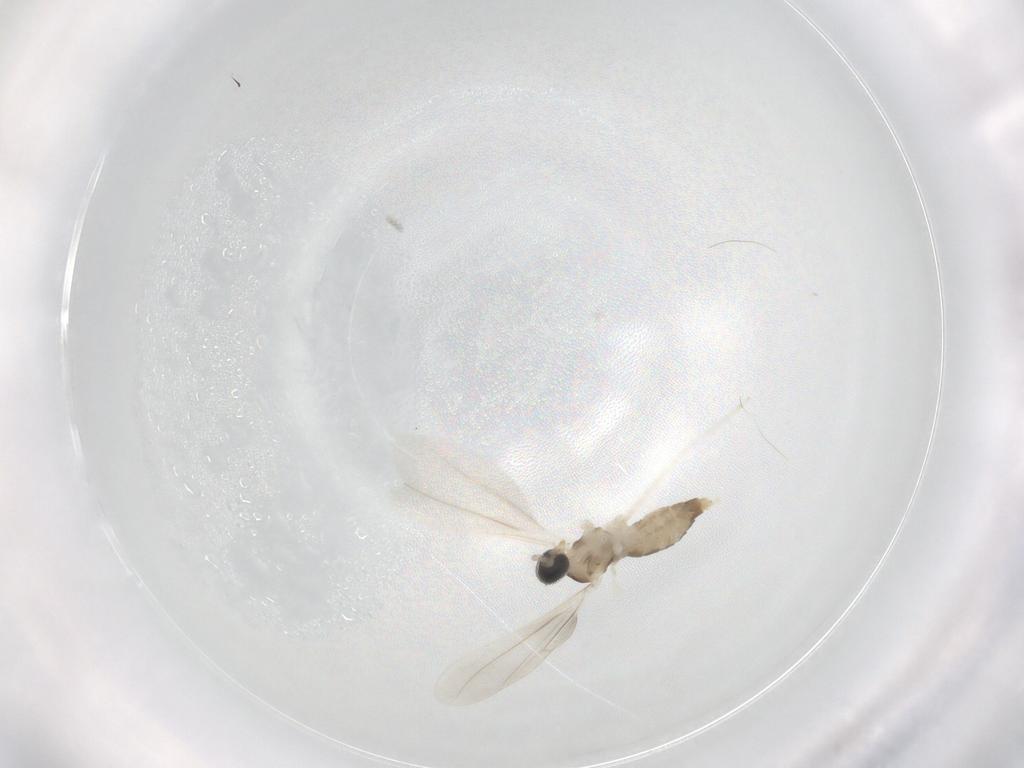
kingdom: Animalia
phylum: Arthropoda
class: Insecta
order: Diptera
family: Cecidomyiidae
